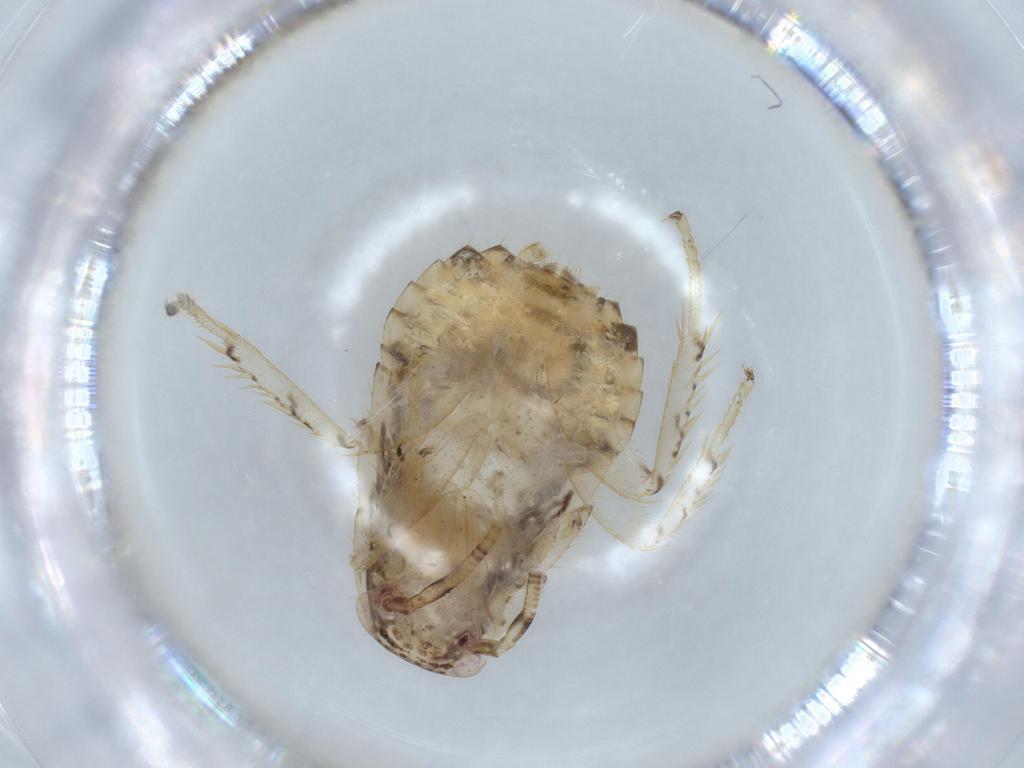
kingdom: Animalia
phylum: Arthropoda
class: Insecta
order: Blattodea
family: Ectobiidae
